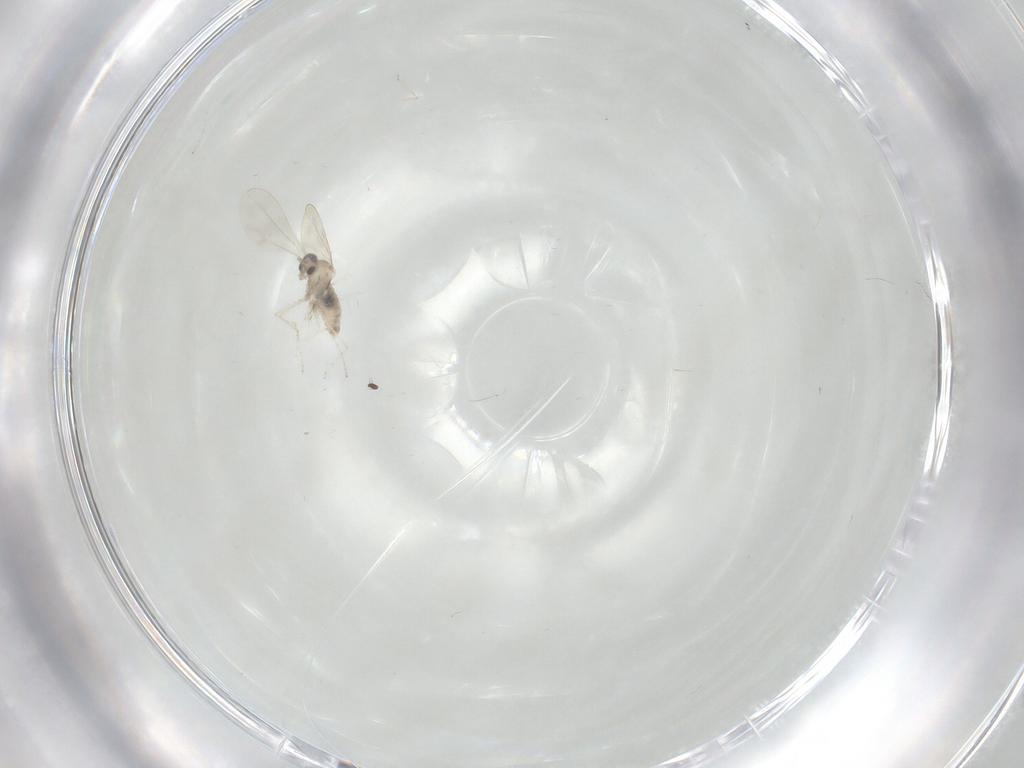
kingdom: Animalia
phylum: Arthropoda
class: Insecta
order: Diptera
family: Cecidomyiidae
